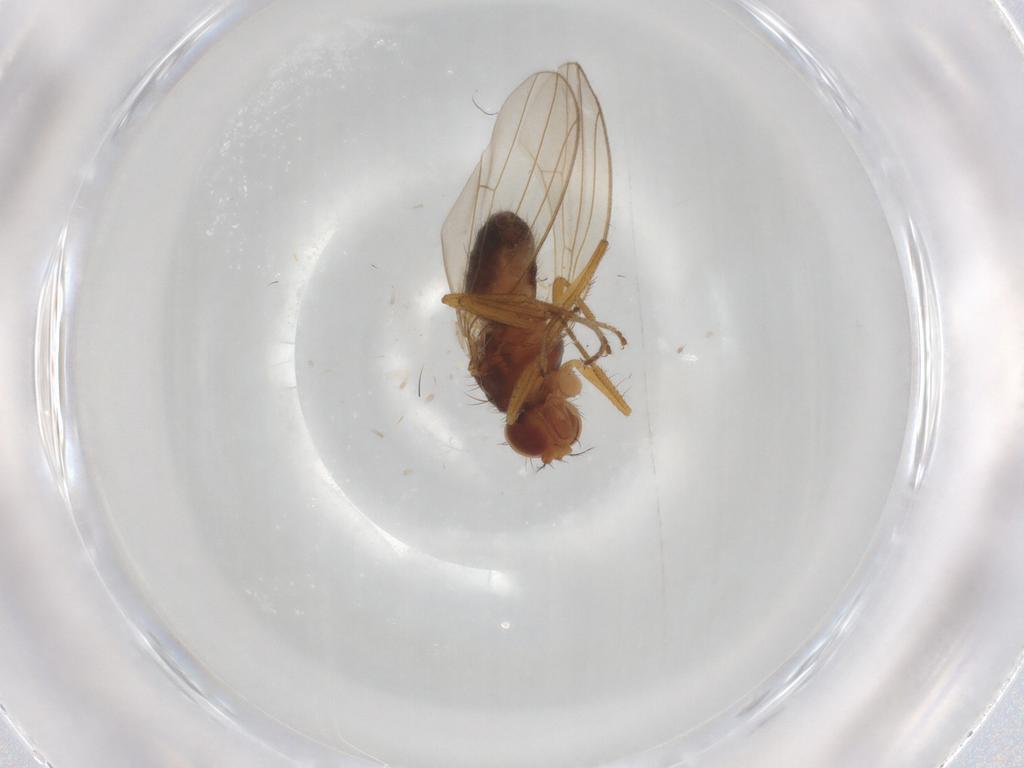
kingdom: Animalia
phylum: Arthropoda
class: Insecta
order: Diptera
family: Drosophilidae
